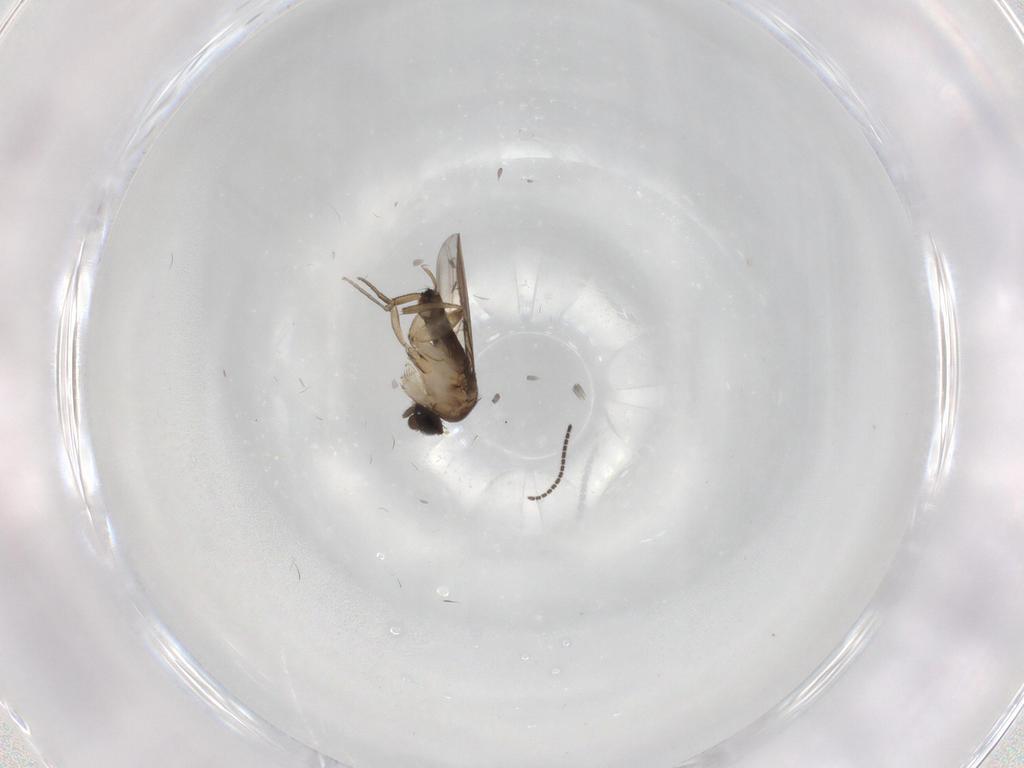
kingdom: Animalia
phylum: Arthropoda
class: Insecta
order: Diptera
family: Phoridae
